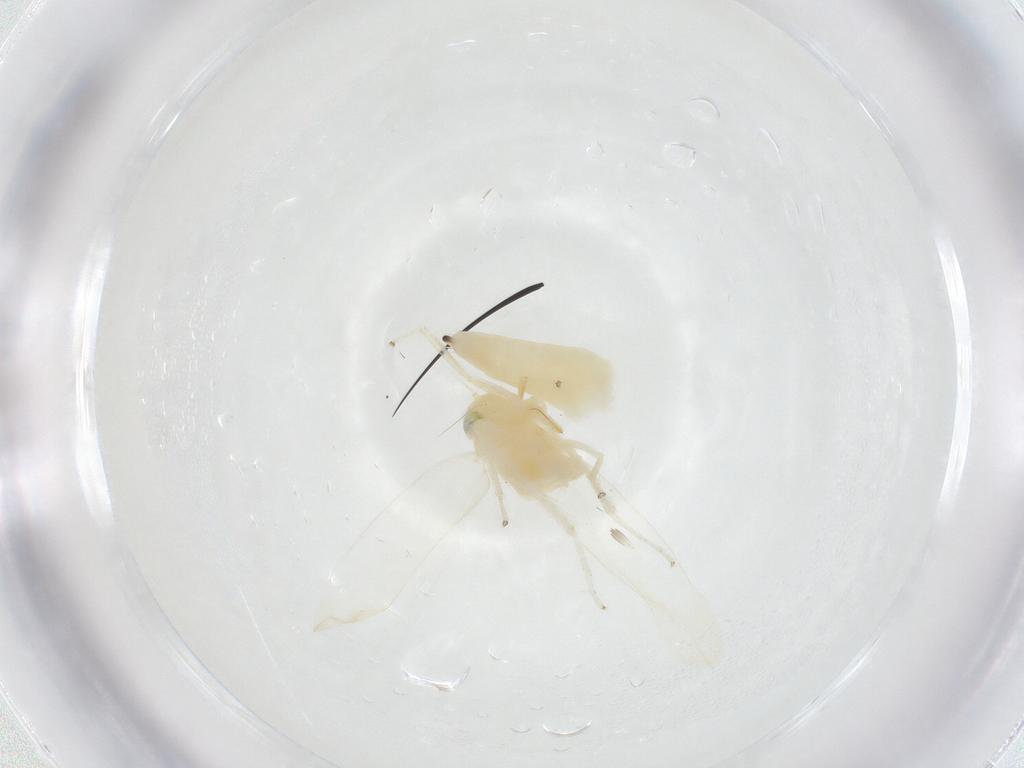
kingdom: Animalia
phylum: Arthropoda
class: Insecta
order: Hemiptera
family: Cicadellidae
